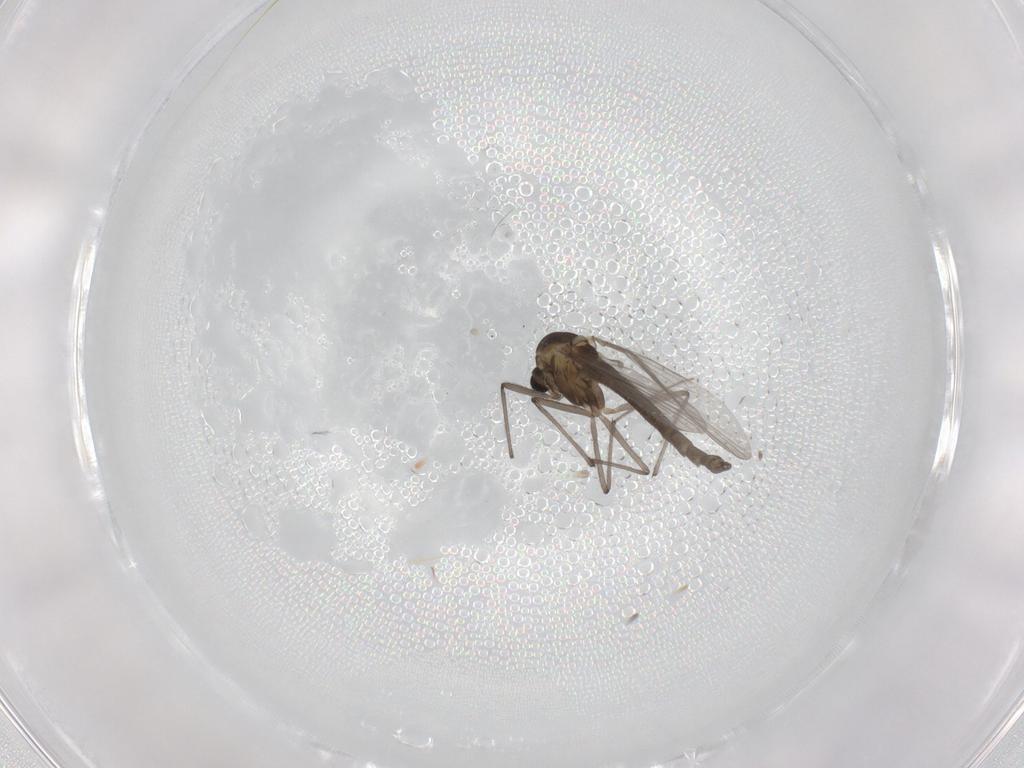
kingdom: Animalia
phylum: Arthropoda
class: Insecta
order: Diptera
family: Chironomidae
